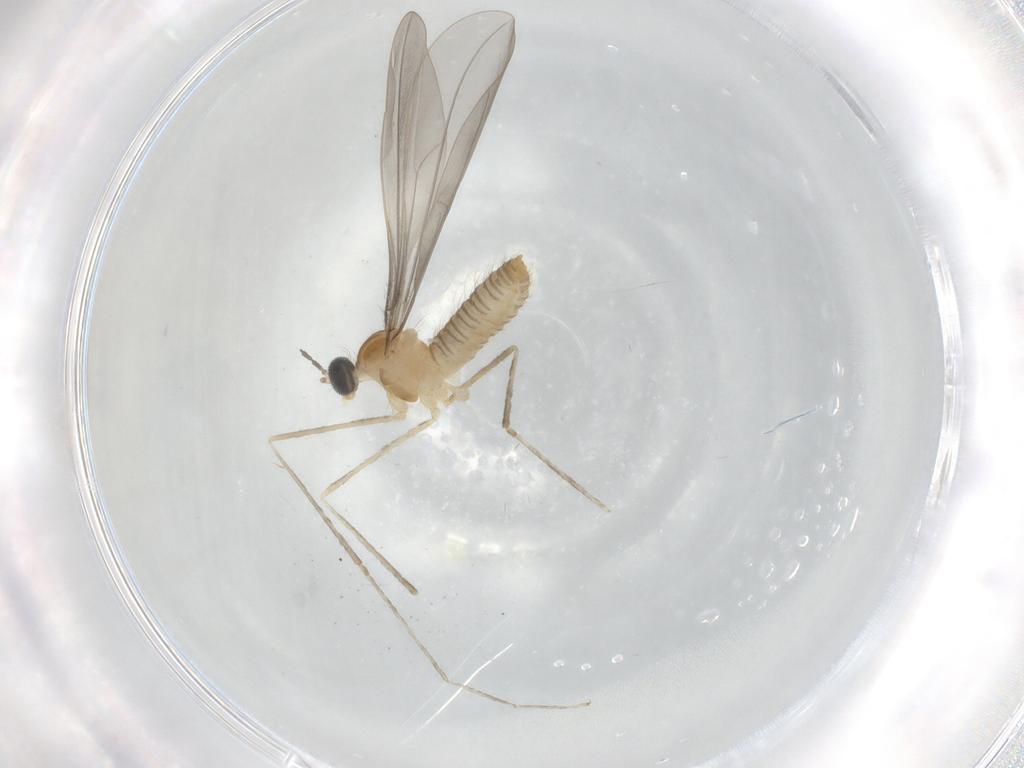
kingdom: Animalia
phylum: Arthropoda
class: Insecta
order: Diptera
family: Cecidomyiidae
